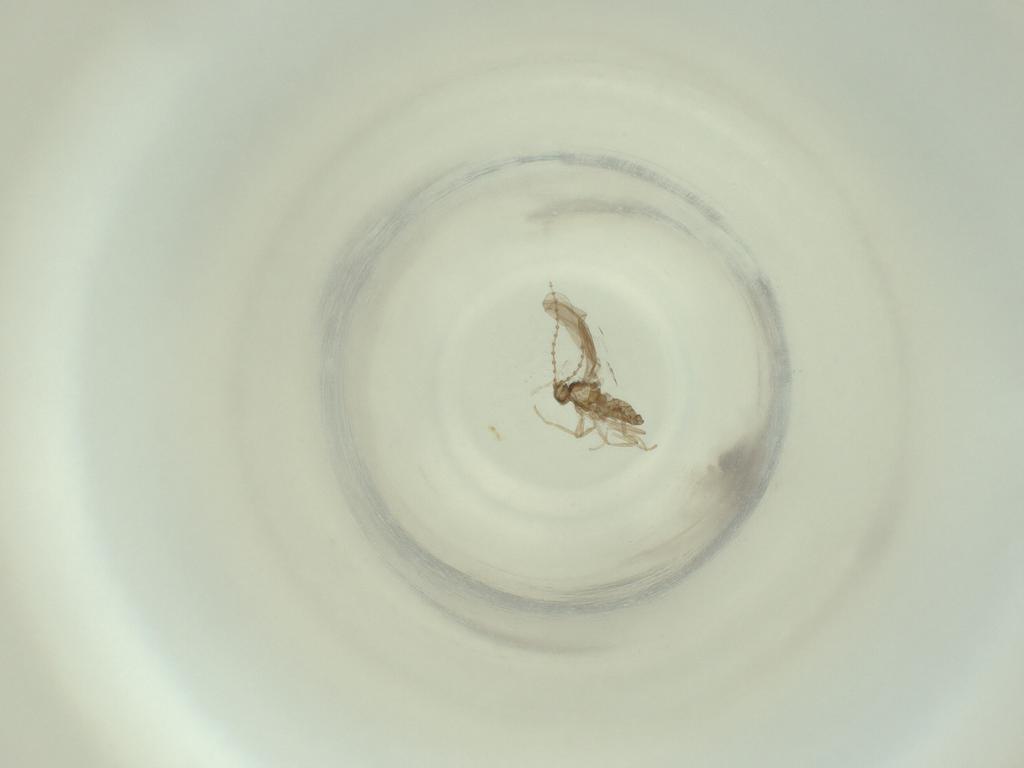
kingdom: Animalia
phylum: Arthropoda
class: Insecta
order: Diptera
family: Cecidomyiidae
